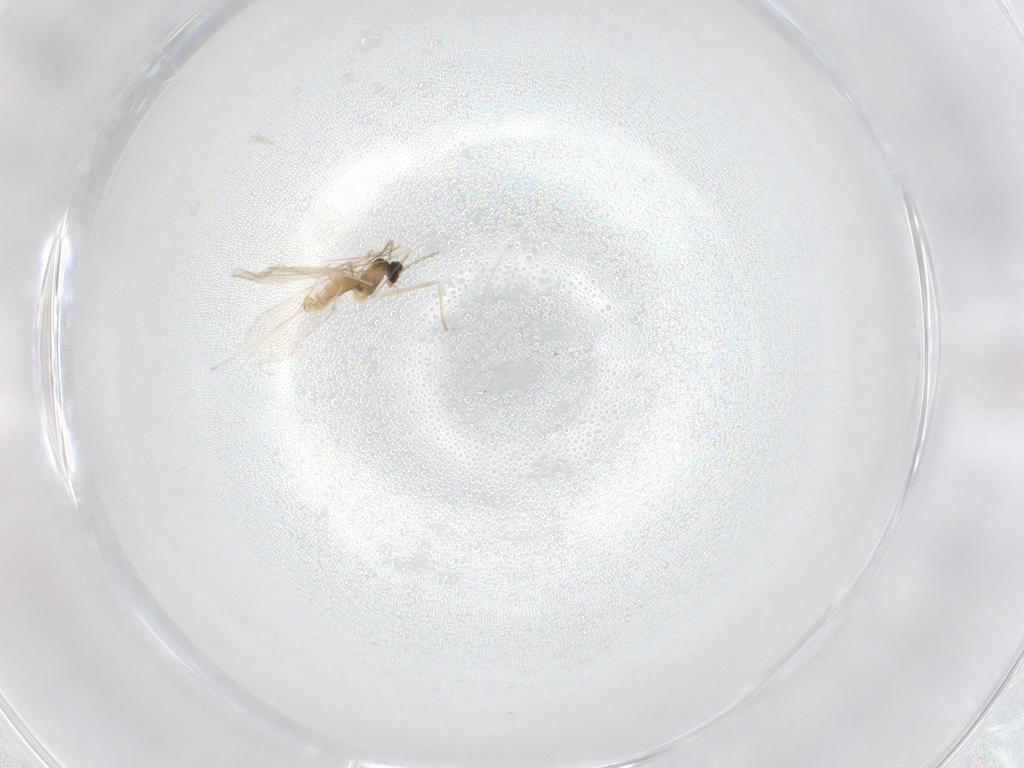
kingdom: Animalia
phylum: Arthropoda
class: Insecta
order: Diptera
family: Cecidomyiidae
